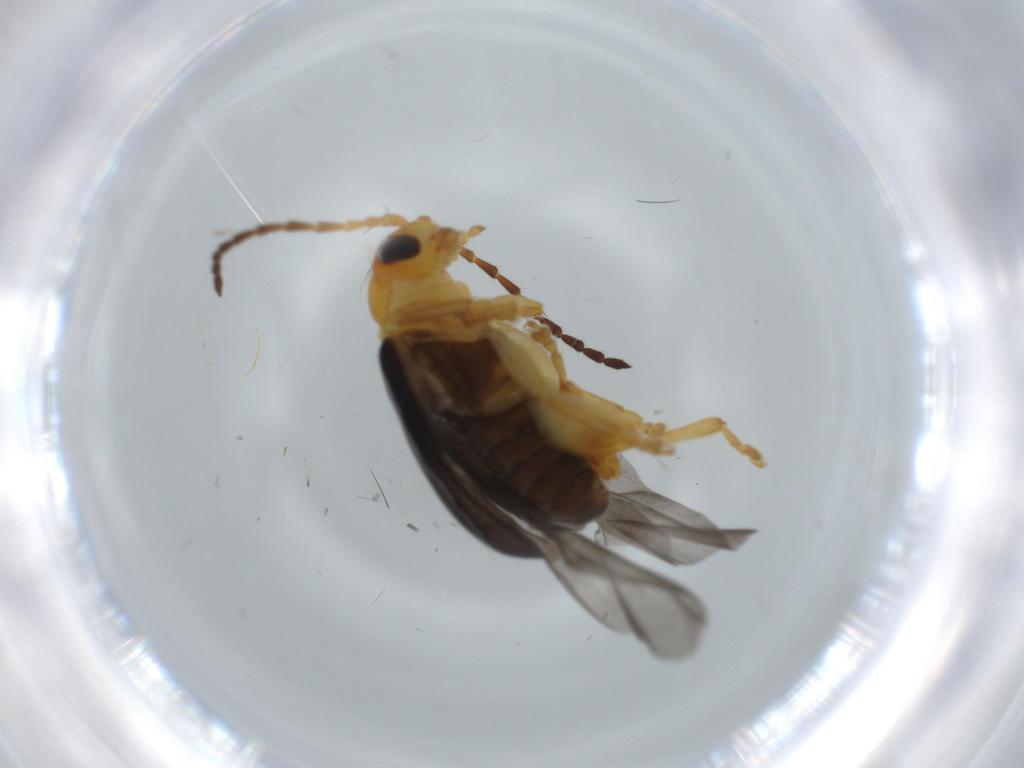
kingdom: Animalia
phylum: Arthropoda
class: Insecta
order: Coleoptera
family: Chrysomelidae
